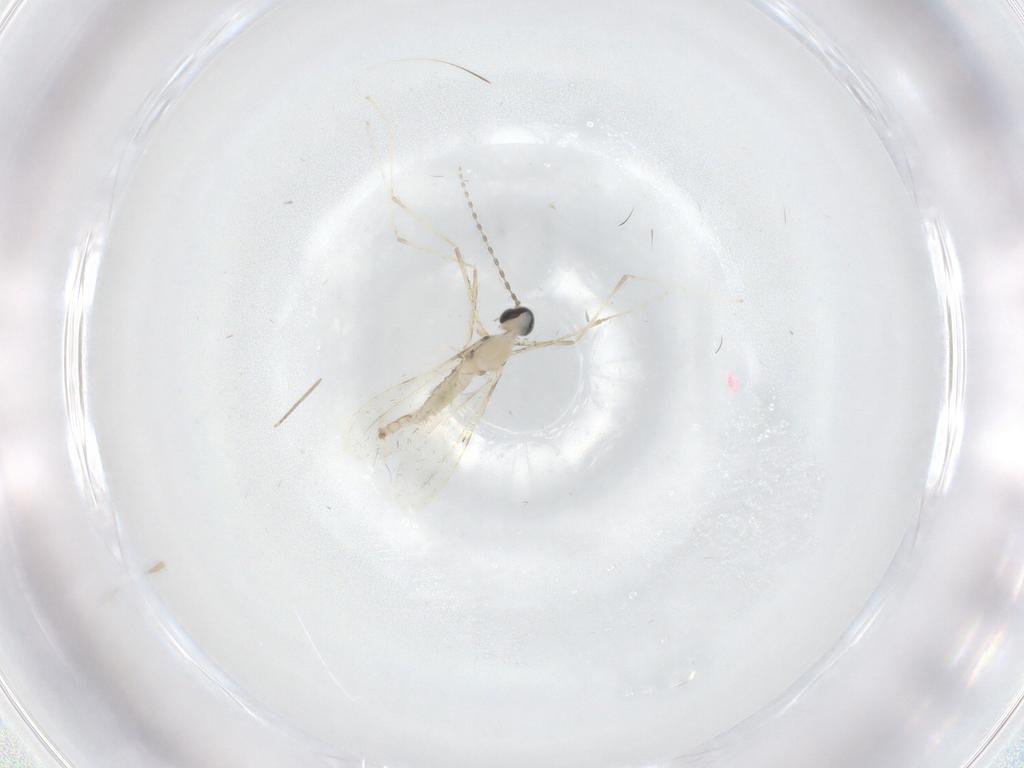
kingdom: Animalia
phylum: Arthropoda
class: Insecta
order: Diptera
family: Cecidomyiidae
